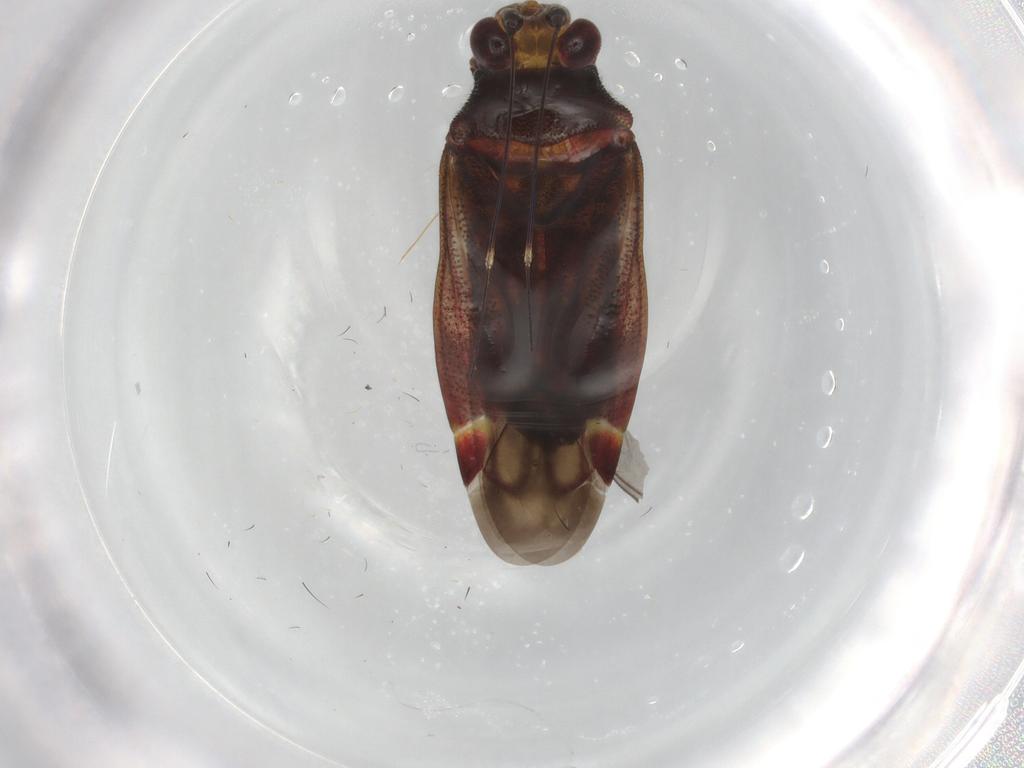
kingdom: Animalia
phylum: Arthropoda
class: Insecta
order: Hemiptera
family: Miridae
